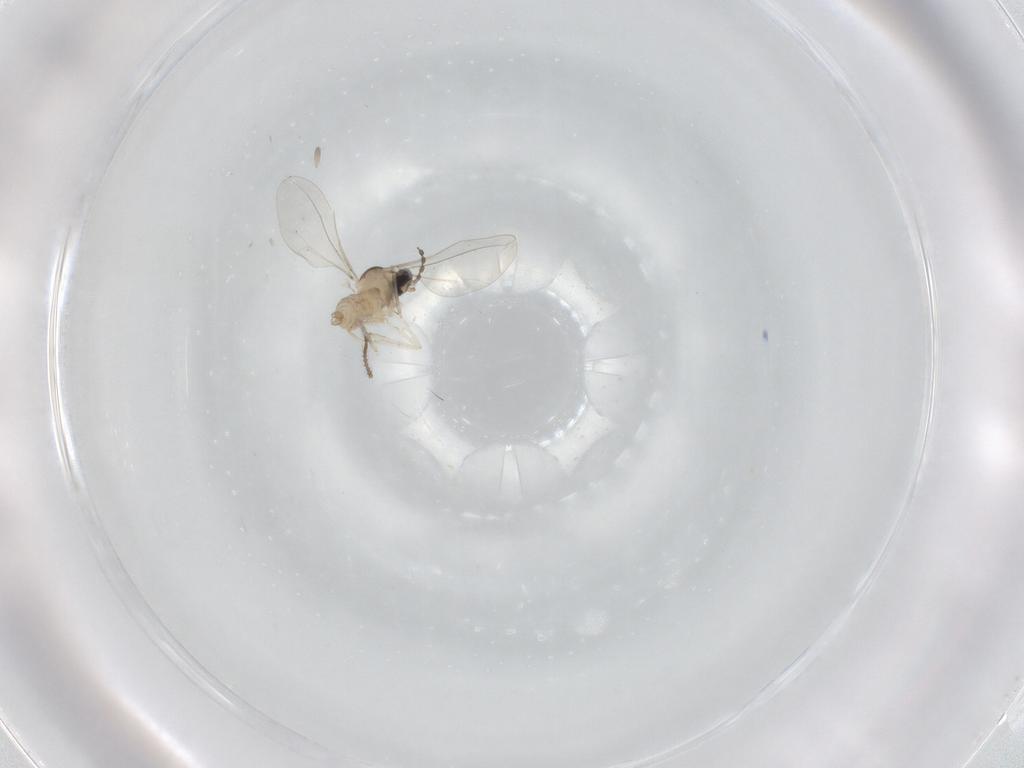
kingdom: Animalia
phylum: Arthropoda
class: Insecta
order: Diptera
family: Cecidomyiidae
